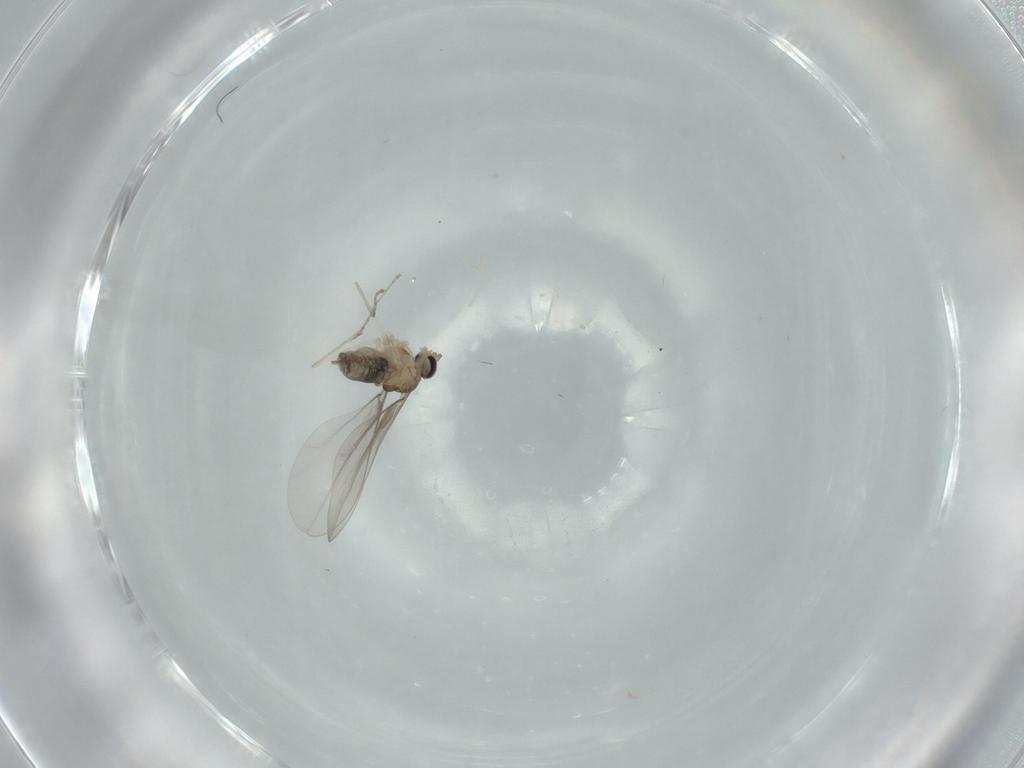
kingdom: Animalia
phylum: Arthropoda
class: Insecta
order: Diptera
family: Cecidomyiidae
